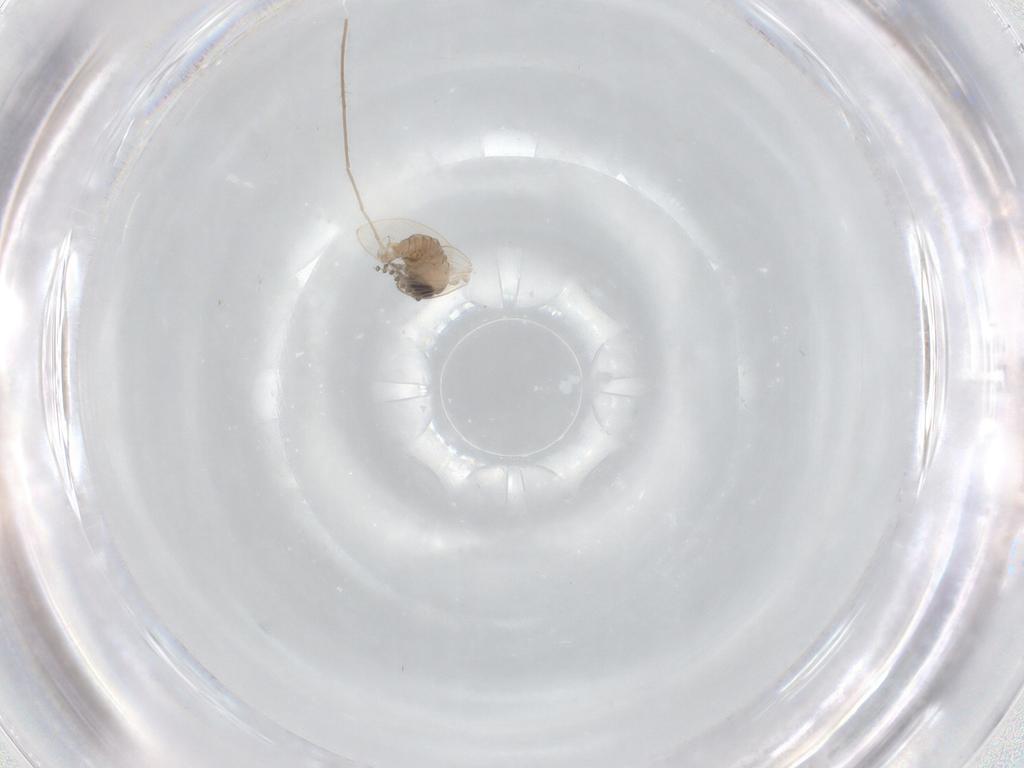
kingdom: Animalia
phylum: Arthropoda
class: Insecta
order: Diptera
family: Psychodidae
